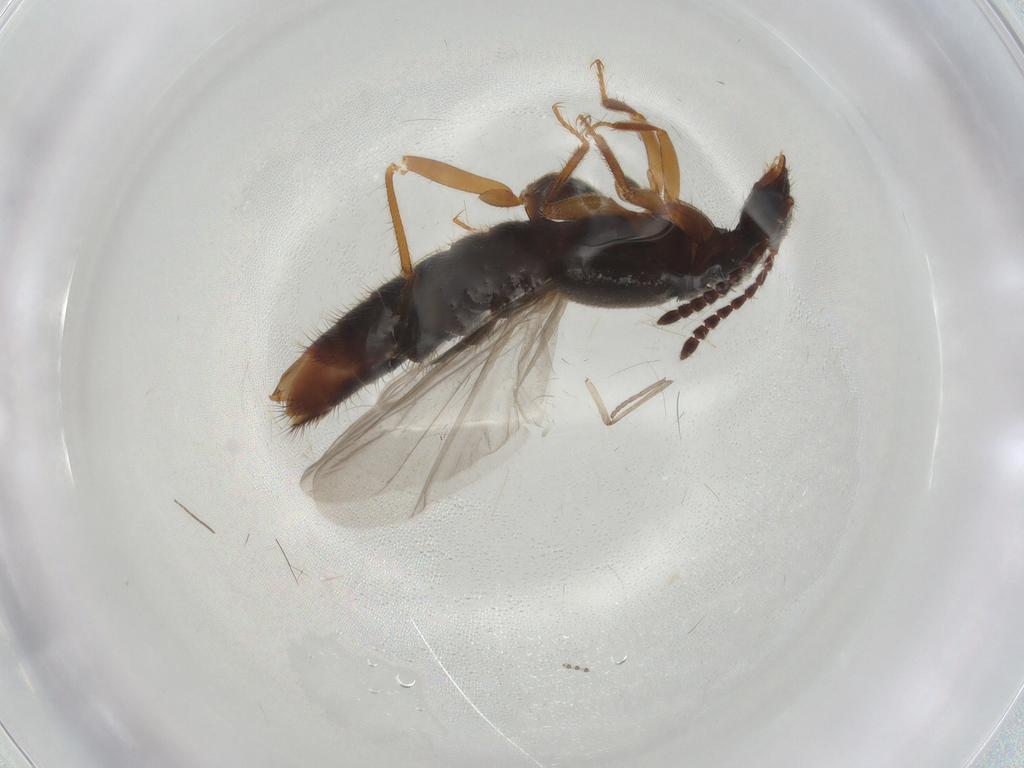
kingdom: Animalia
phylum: Arthropoda
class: Insecta
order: Coleoptera
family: Staphylinidae
